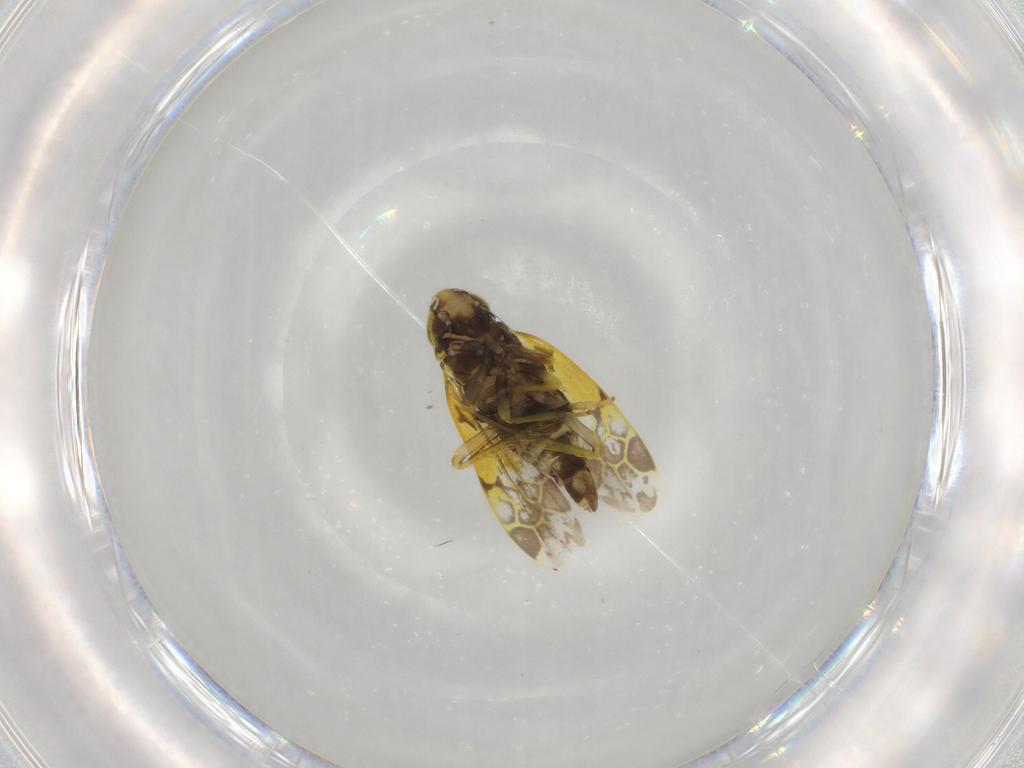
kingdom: Animalia
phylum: Arthropoda
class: Insecta
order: Hemiptera
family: Cicadellidae
